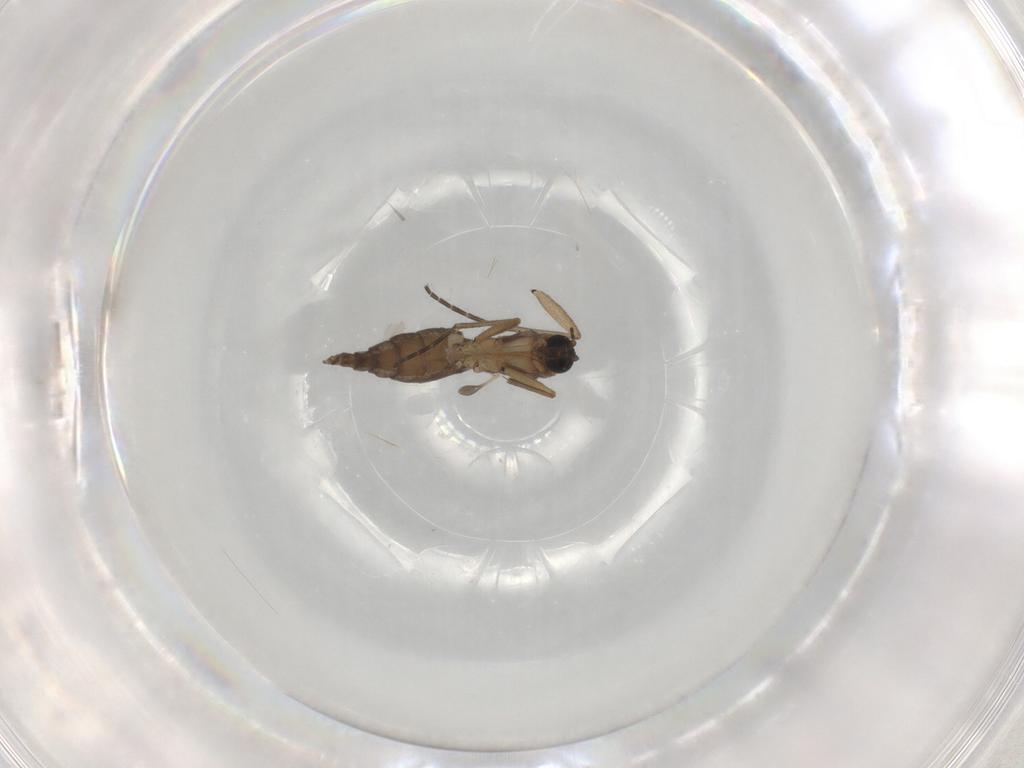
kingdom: Animalia
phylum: Arthropoda
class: Insecta
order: Diptera
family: Sciaridae
